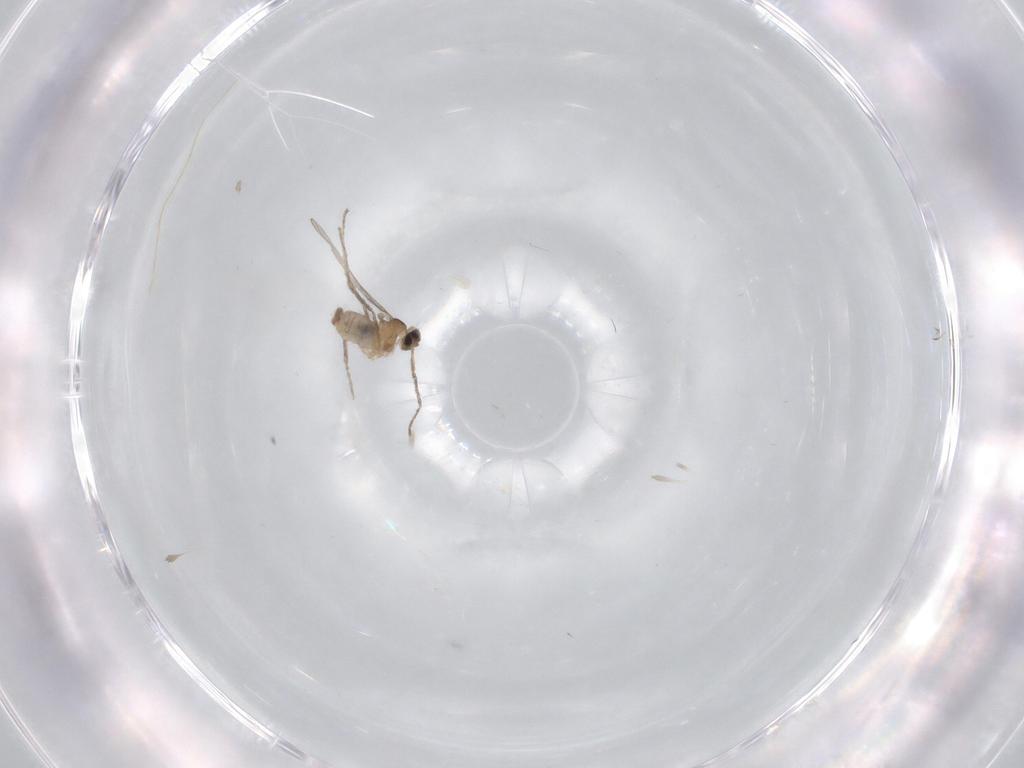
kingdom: Animalia
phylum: Arthropoda
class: Insecta
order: Diptera
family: Cecidomyiidae
